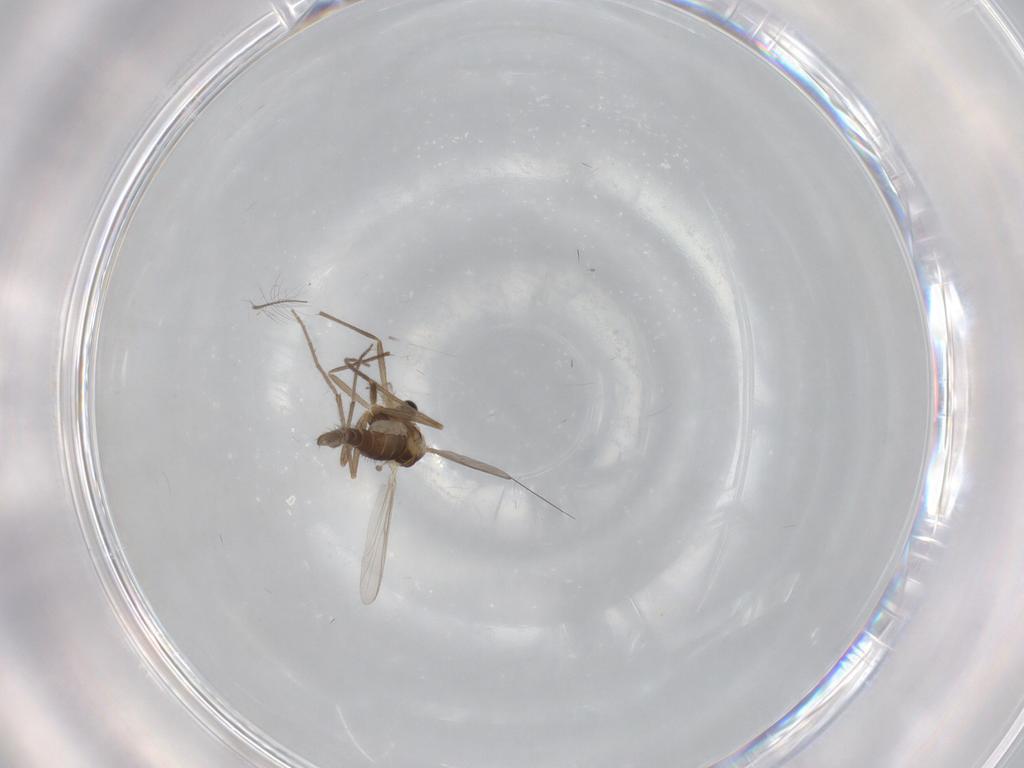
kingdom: Animalia
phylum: Arthropoda
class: Insecta
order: Diptera
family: Chironomidae
